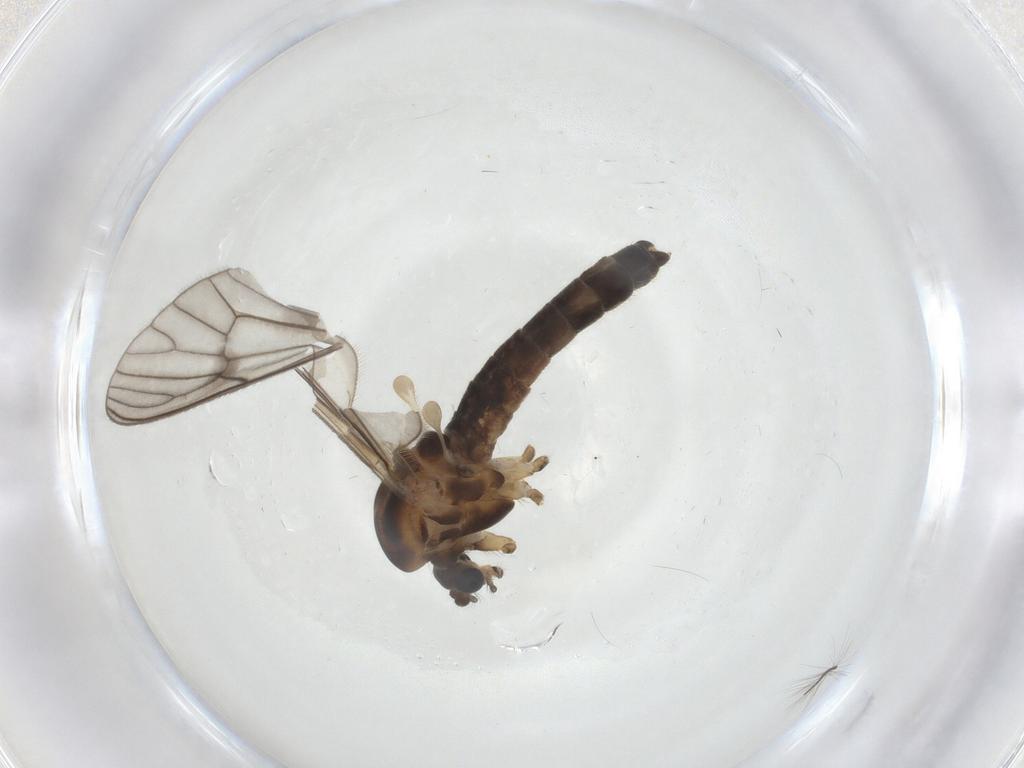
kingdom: Animalia
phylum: Arthropoda
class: Insecta
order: Diptera
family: Chironomidae
